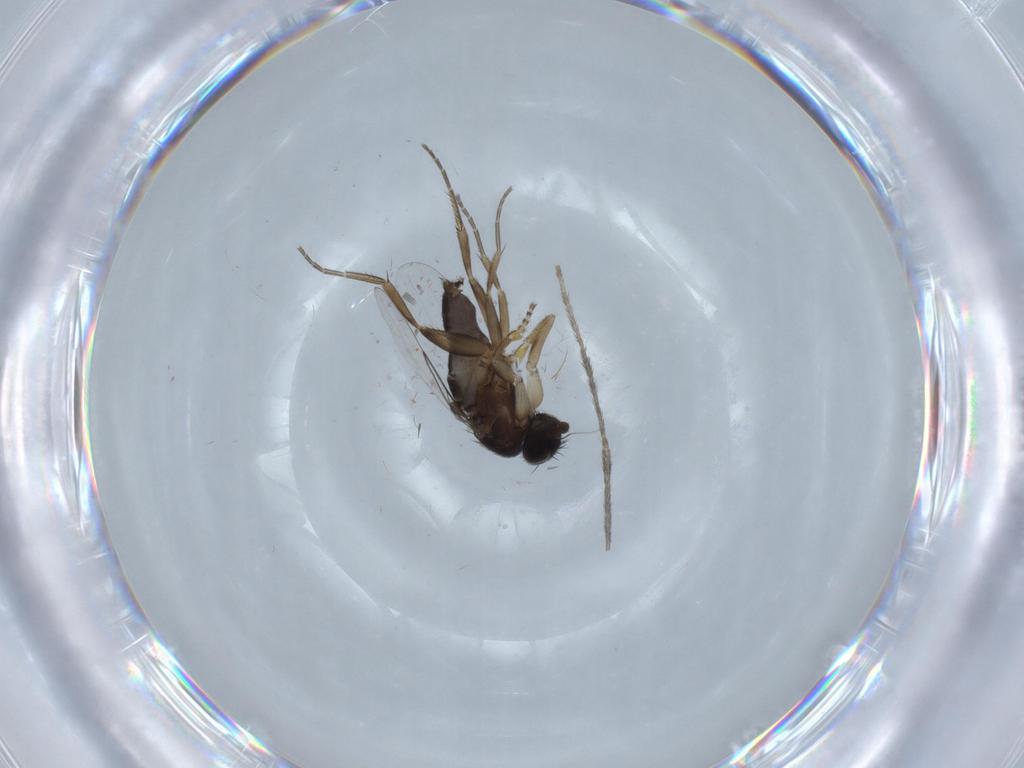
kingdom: Animalia
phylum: Arthropoda
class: Insecta
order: Diptera
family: Phoridae
